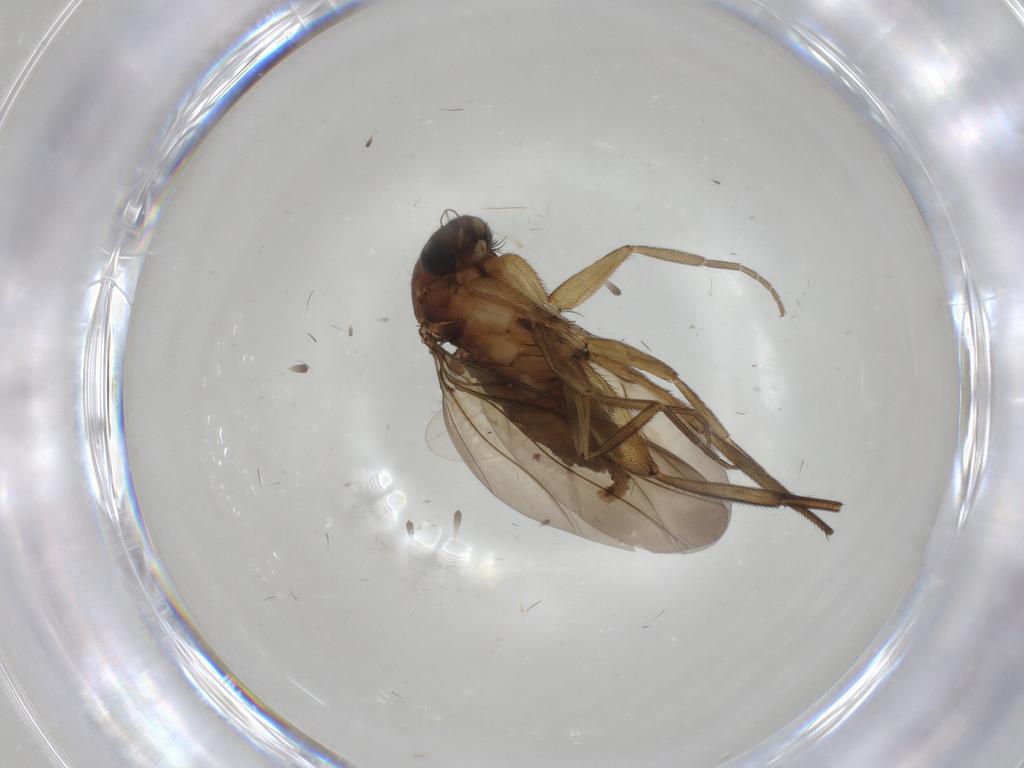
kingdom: Animalia
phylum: Arthropoda
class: Insecta
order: Diptera
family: Phoridae
